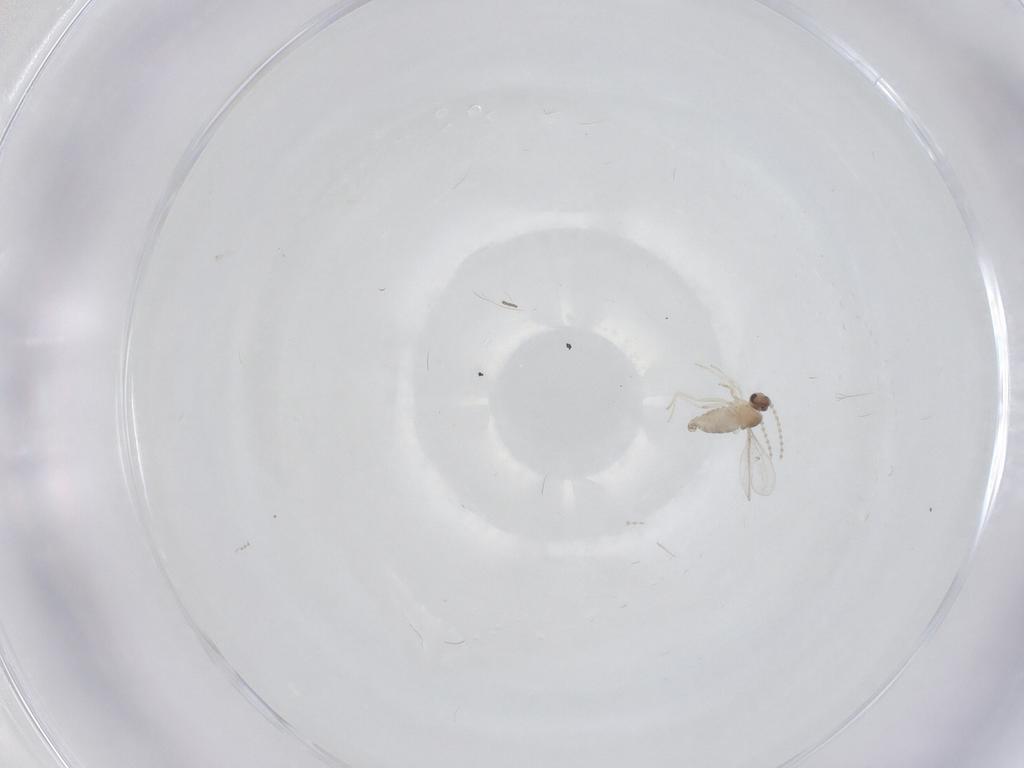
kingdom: Animalia
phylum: Arthropoda
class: Insecta
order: Diptera
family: Cecidomyiidae
